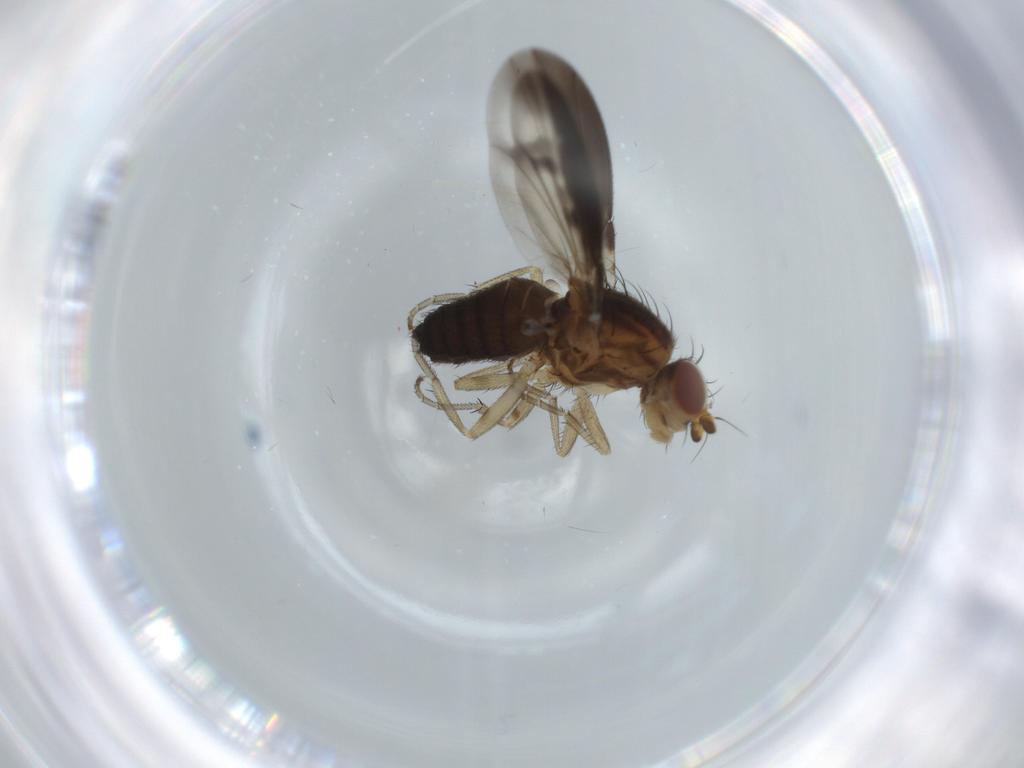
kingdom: Animalia
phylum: Arthropoda
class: Insecta
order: Diptera
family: Heleomyzidae
